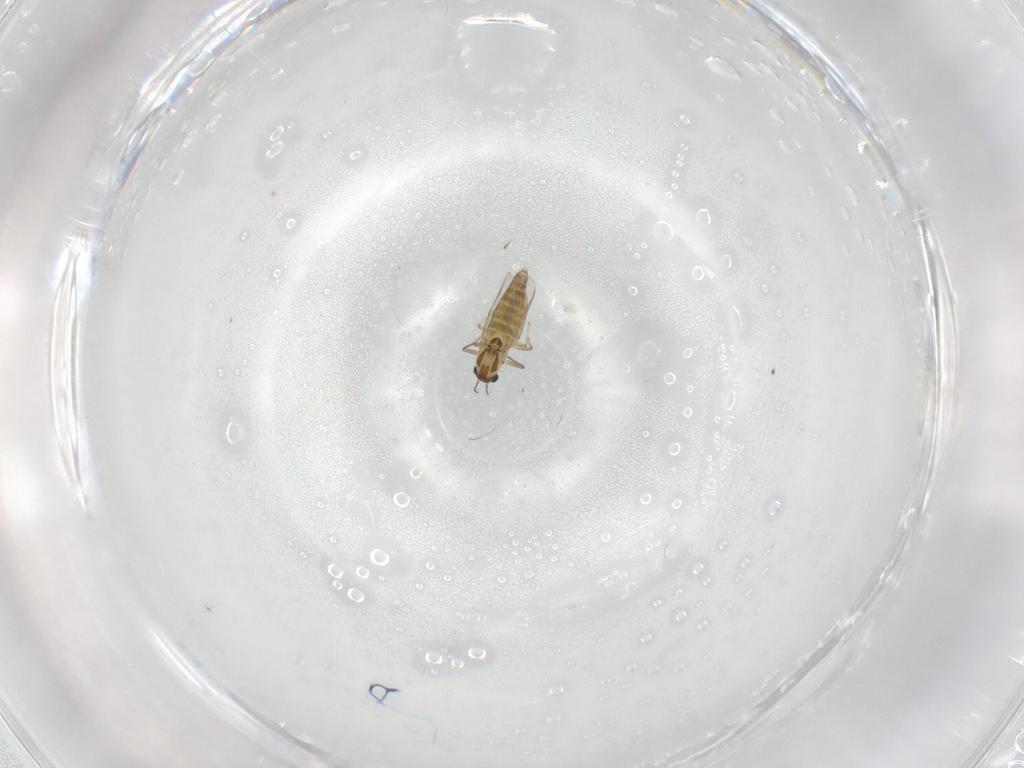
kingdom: Animalia
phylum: Arthropoda
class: Insecta
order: Diptera
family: Chironomidae
